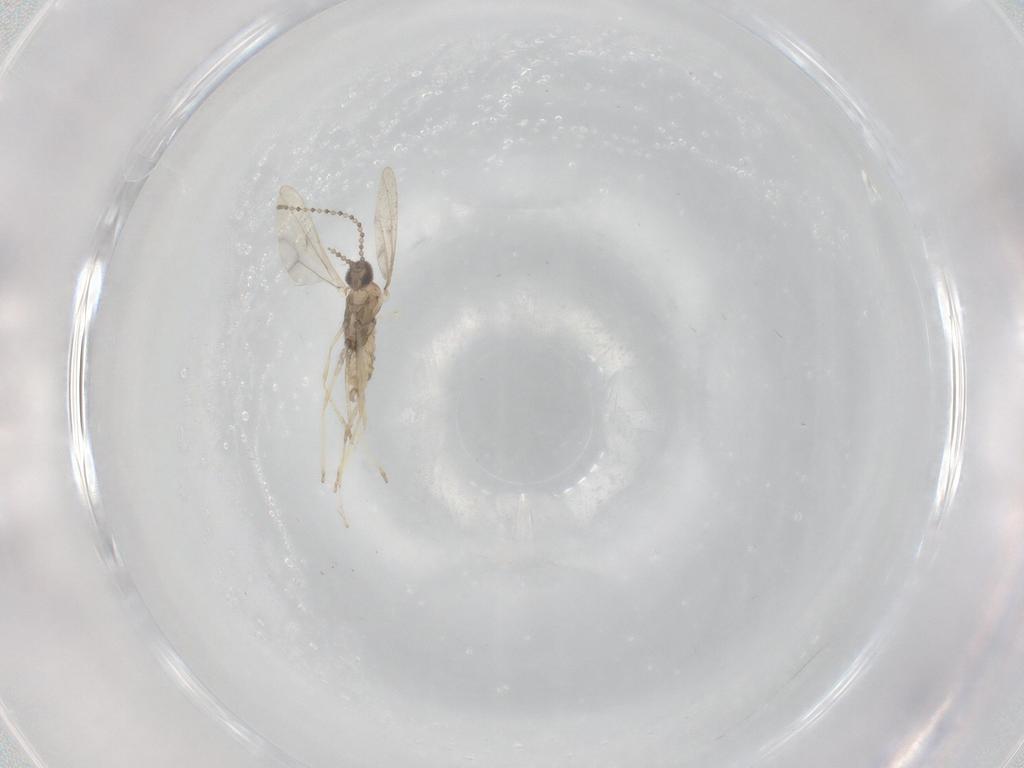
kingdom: Animalia
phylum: Arthropoda
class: Insecta
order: Diptera
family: Cecidomyiidae
